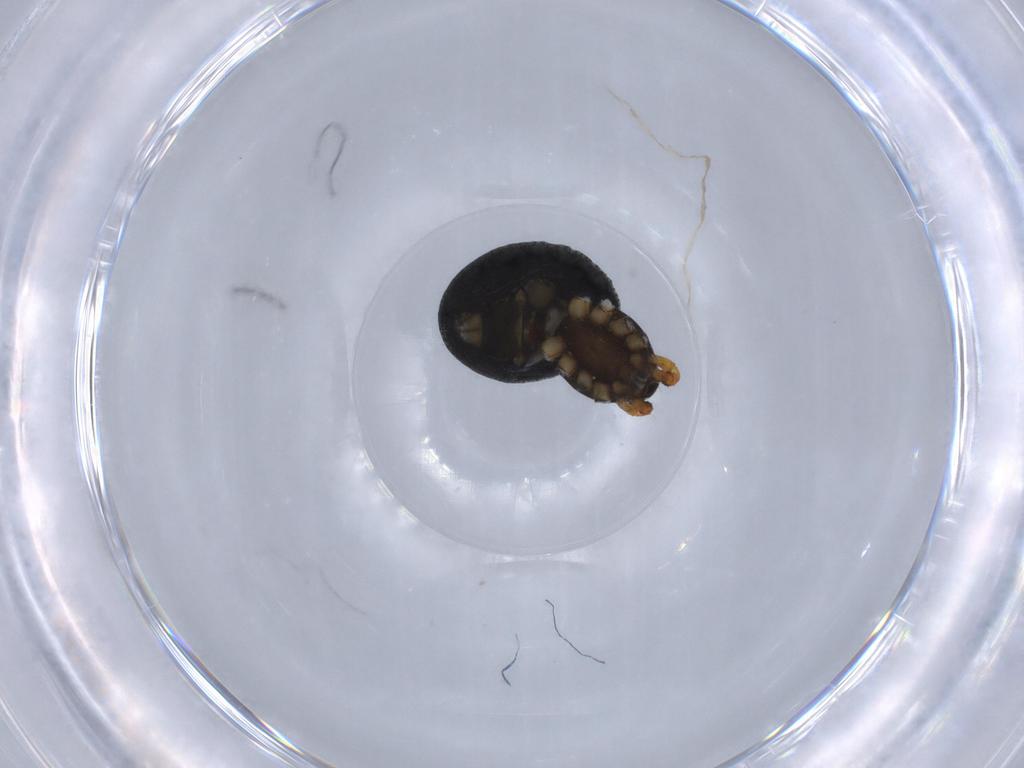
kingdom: Animalia
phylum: Arthropoda
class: Arachnida
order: Araneae
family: Theridiidae
